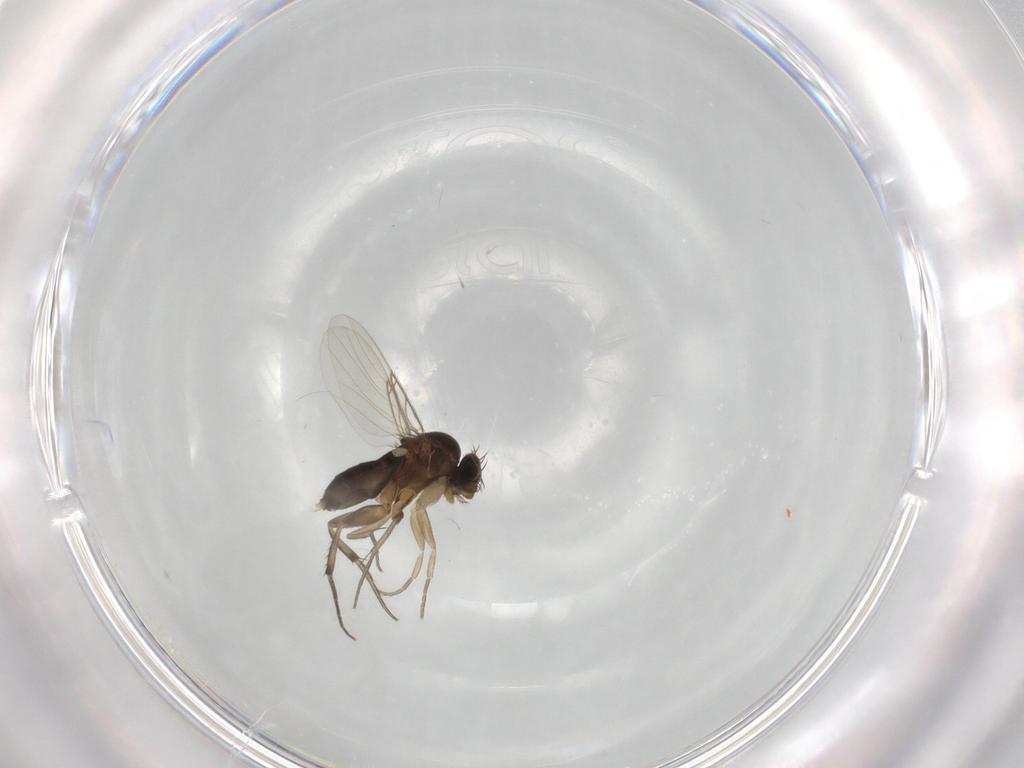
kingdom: Animalia
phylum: Arthropoda
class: Insecta
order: Diptera
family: Phoridae
